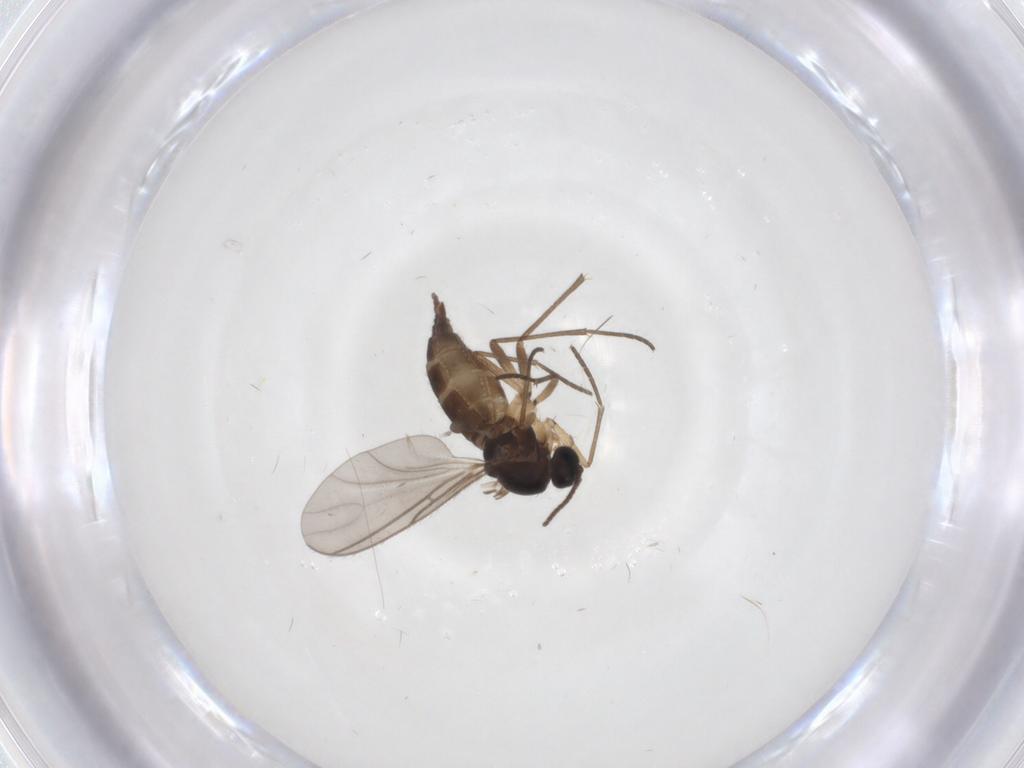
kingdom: Animalia
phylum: Arthropoda
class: Insecta
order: Diptera
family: Sciaridae
